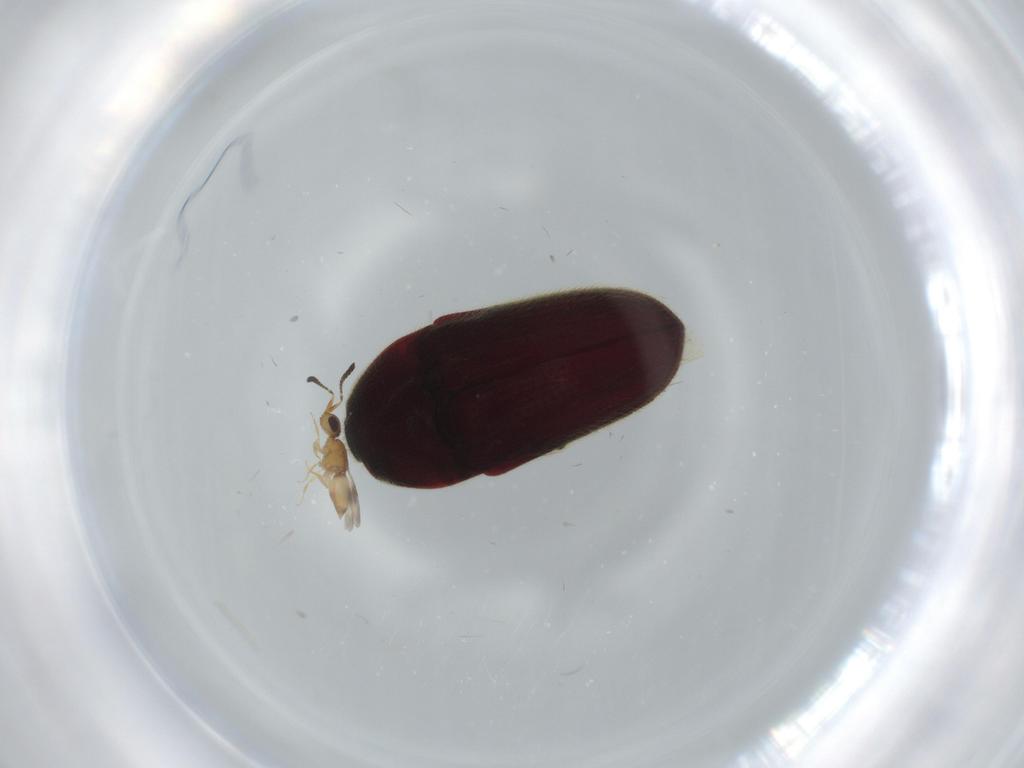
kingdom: Animalia
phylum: Arthropoda
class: Insecta
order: Coleoptera
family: Throscidae
